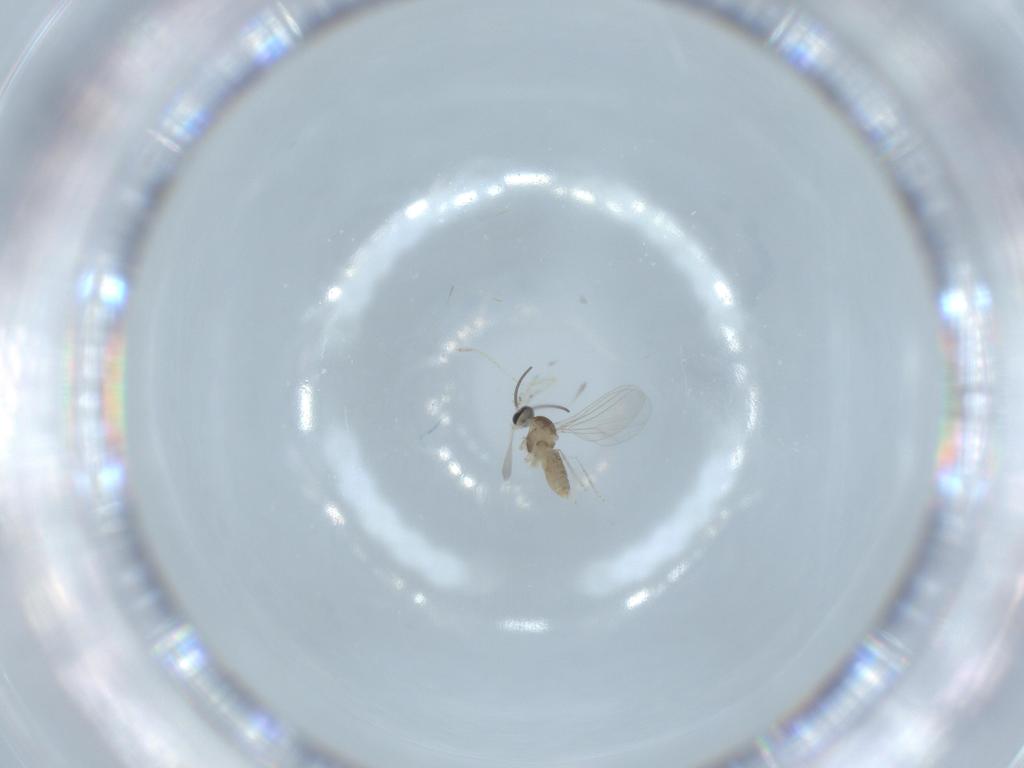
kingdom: Animalia
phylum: Arthropoda
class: Insecta
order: Diptera
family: Cecidomyiidae
